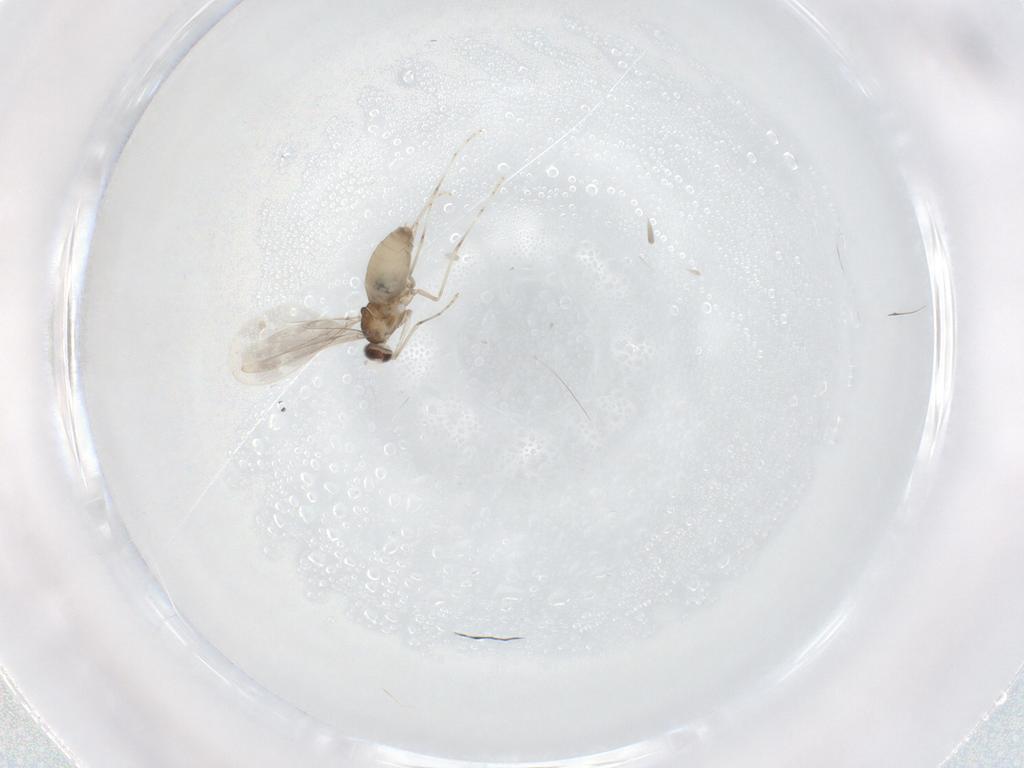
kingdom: Animalia
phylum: Arthropoda
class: Insecta
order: Diptera
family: Cecidomyiidae
